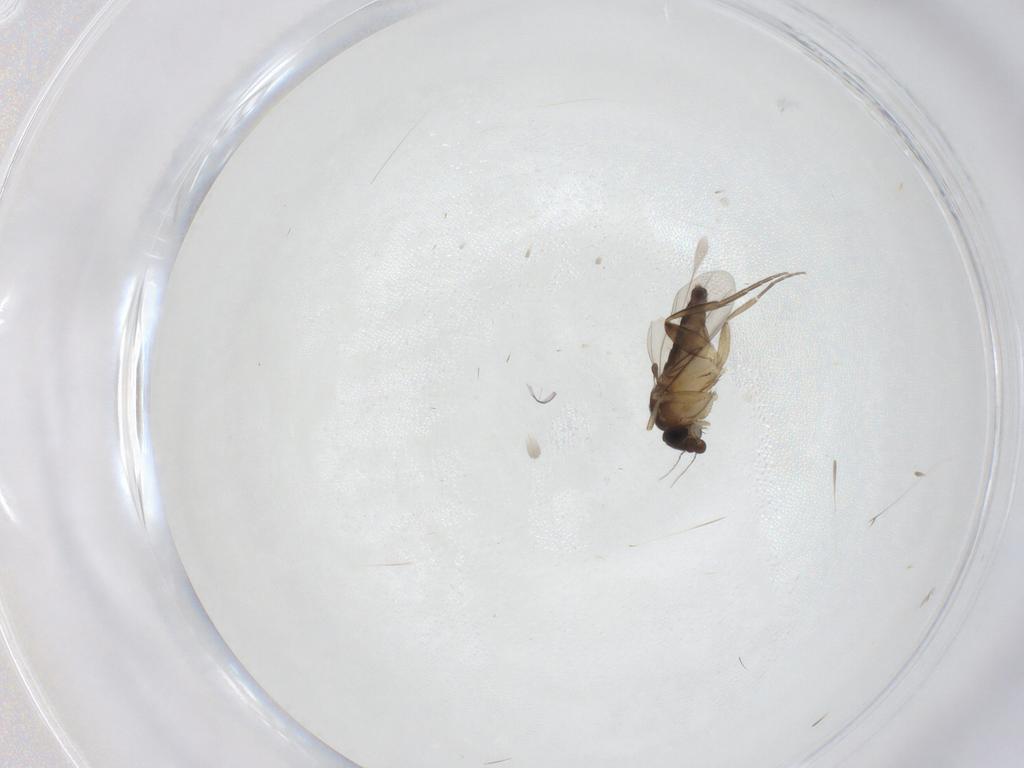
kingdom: Animalia
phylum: Arthropoda
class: Insecta
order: Diptera
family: Phoridae
